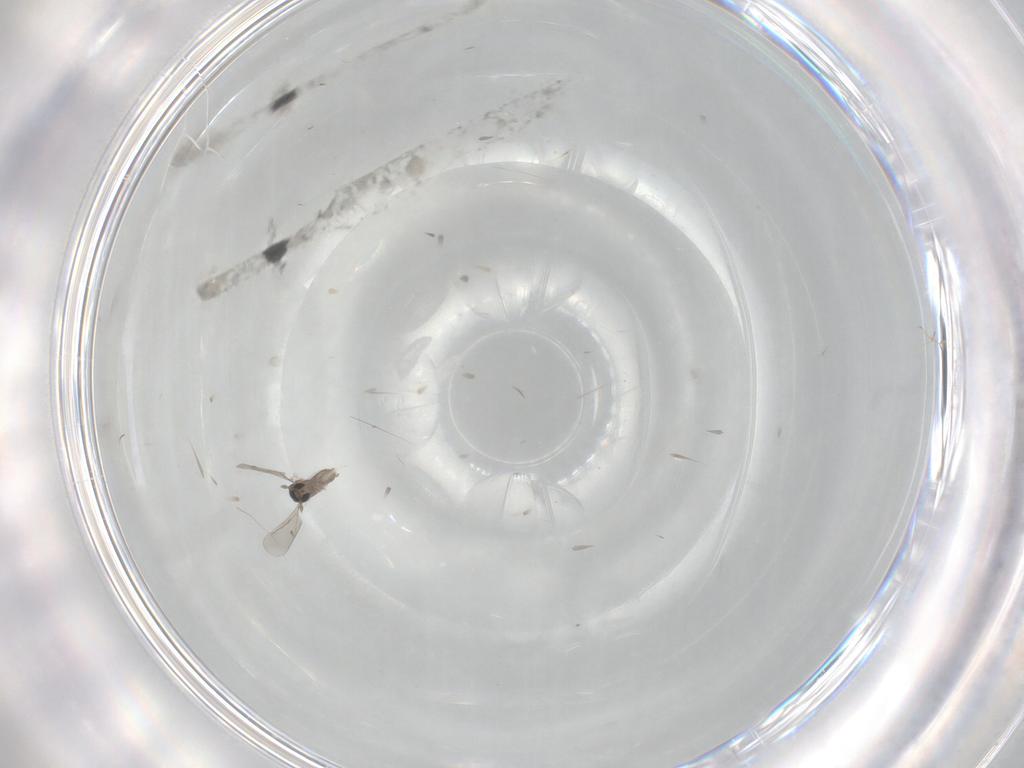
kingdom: Animalia
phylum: Arthropoda
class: Insecta
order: Diptera
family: Cecidomyiidae
